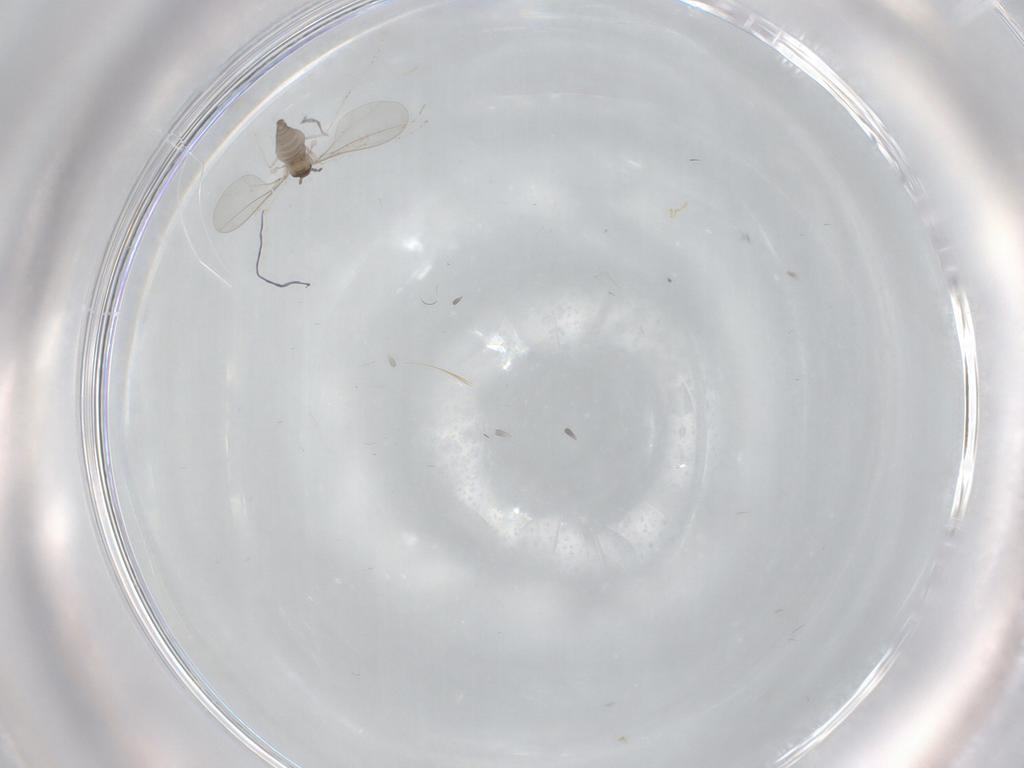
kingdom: Animalia
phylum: Arthropoda
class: Insecta
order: Diptera
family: Cecidomyiidae
